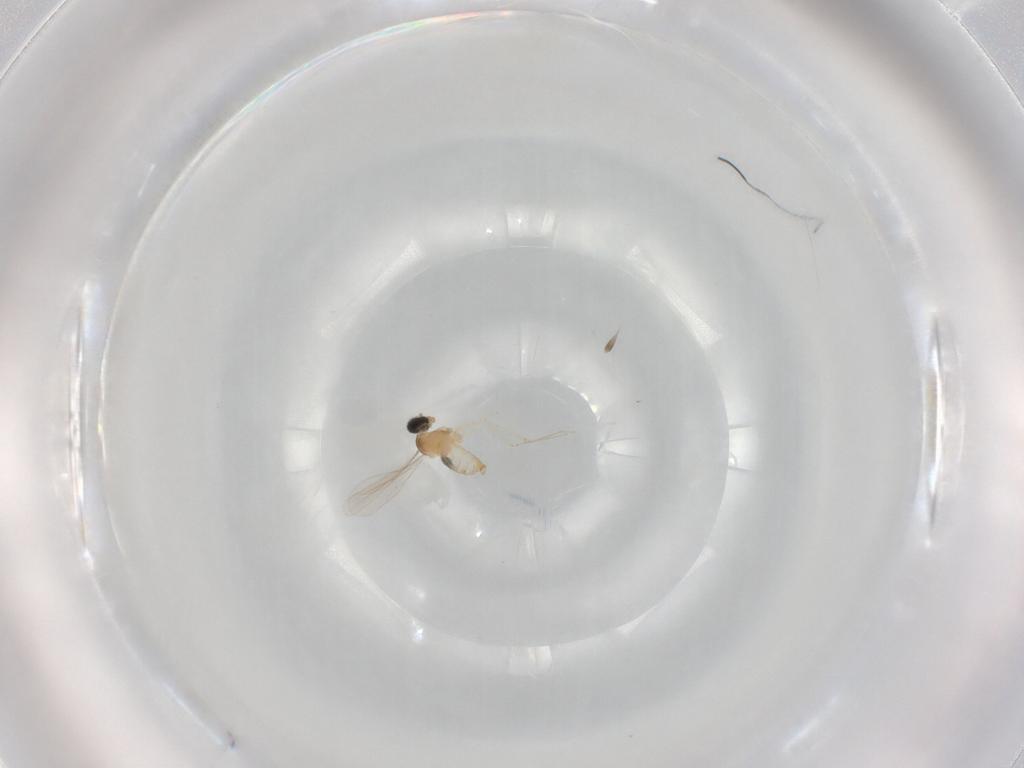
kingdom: Animalia
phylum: Arthropoda
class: Insecta
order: Diptera
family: Cecidomyiidae
